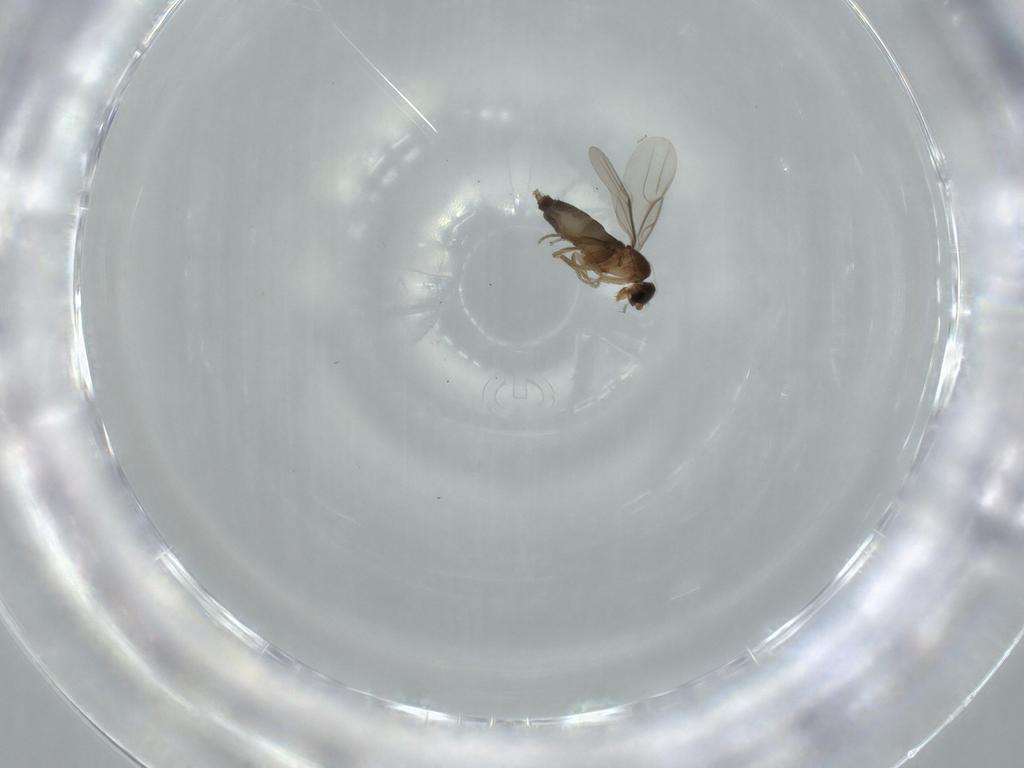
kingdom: Animalia
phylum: Arthropoda
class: Insecta
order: Diptera
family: Phoridae
